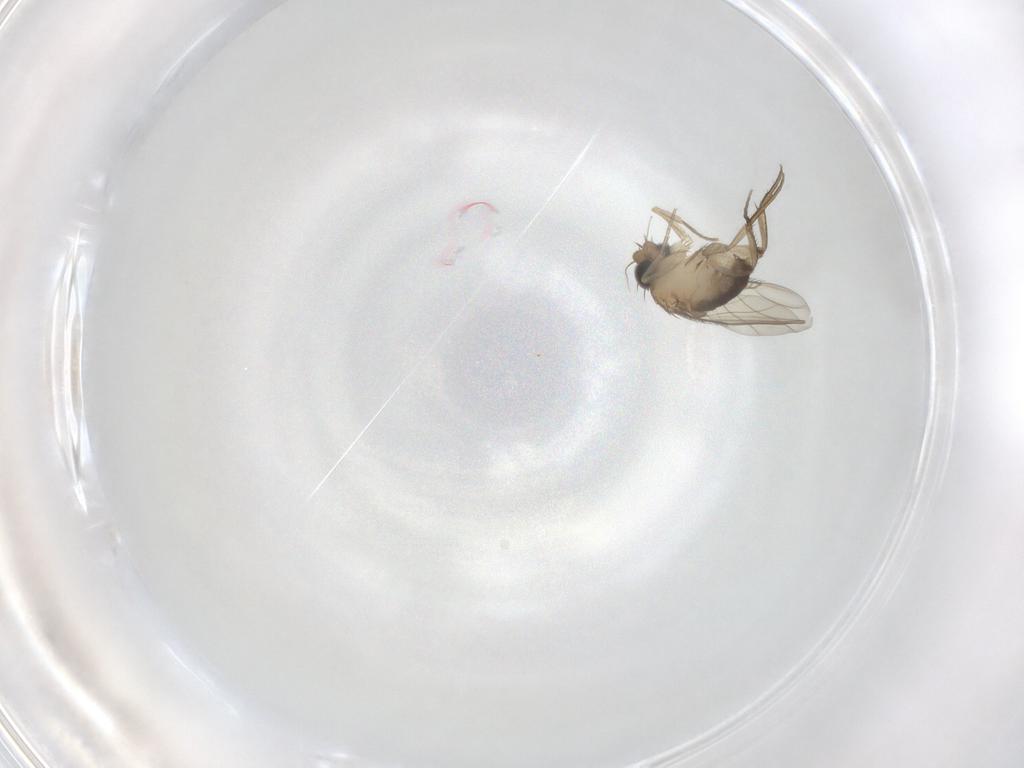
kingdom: Animalia
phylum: Arthropoda
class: Insecta
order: Diptera
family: Phoridae
